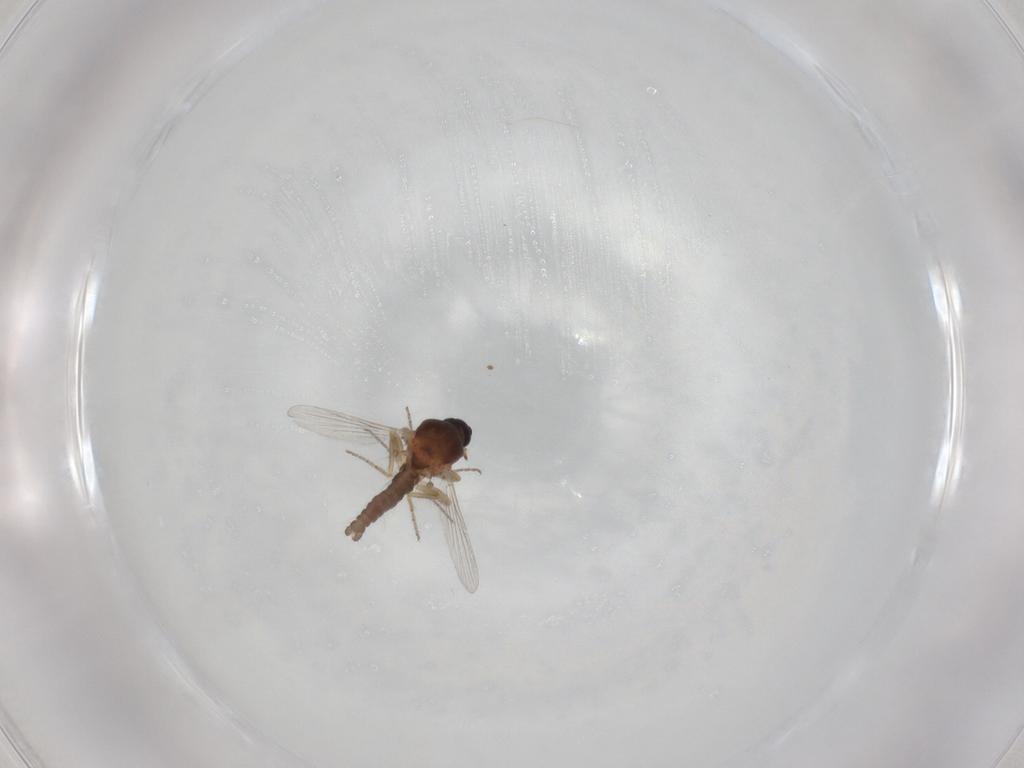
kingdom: Animalia
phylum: Arthropoda
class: Insecta
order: Diptera
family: Ceratopogonidae
